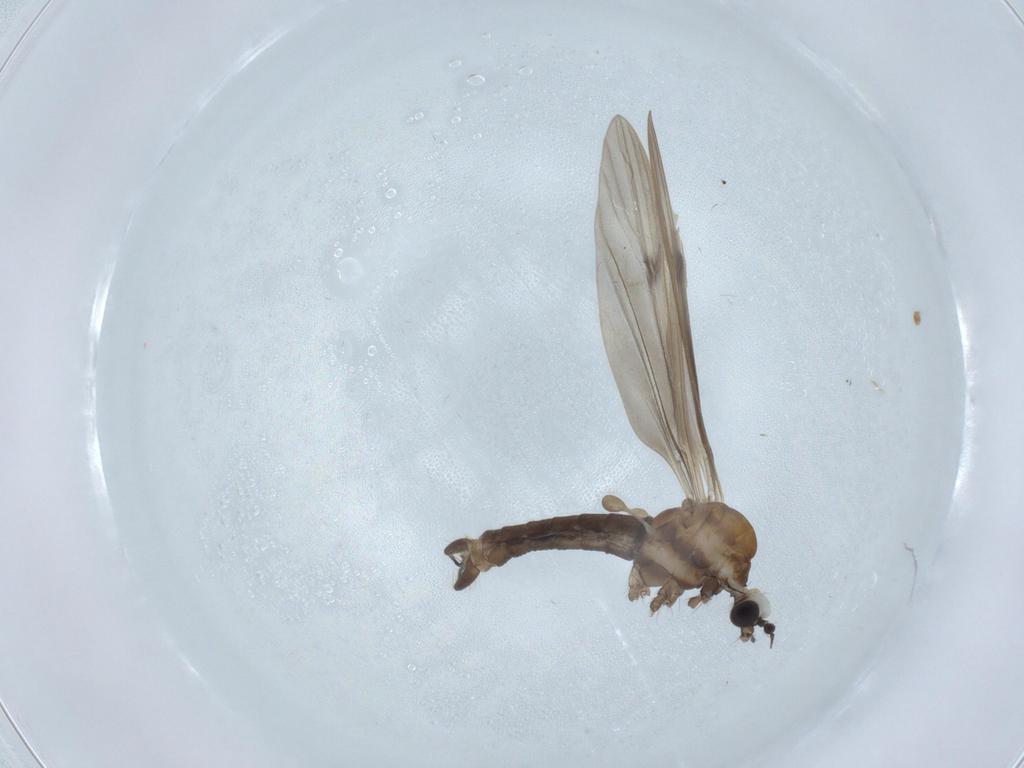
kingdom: Animalia
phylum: Arthropoda
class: Insecta
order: Diptera
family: Limoniidae
